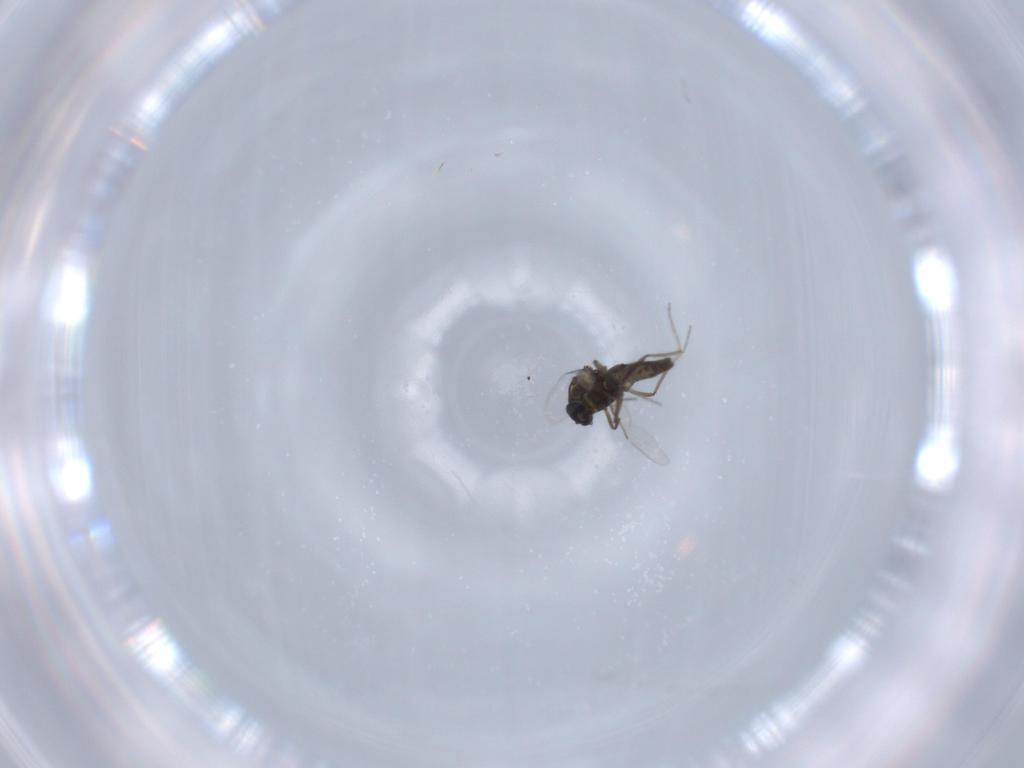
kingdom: Animalia
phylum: Arthropoda
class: Insecta
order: Diptera
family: Ceratopogonidae
